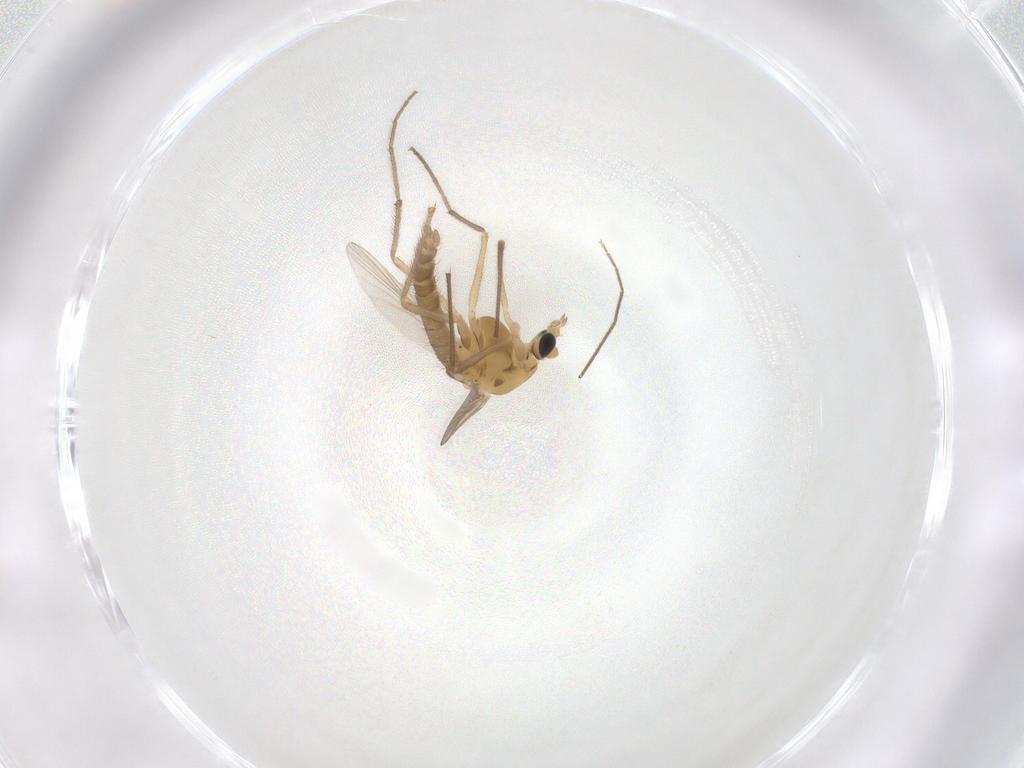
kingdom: Animalia
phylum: Arthropoda
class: Insecta
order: Diptera
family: Chironomidae
